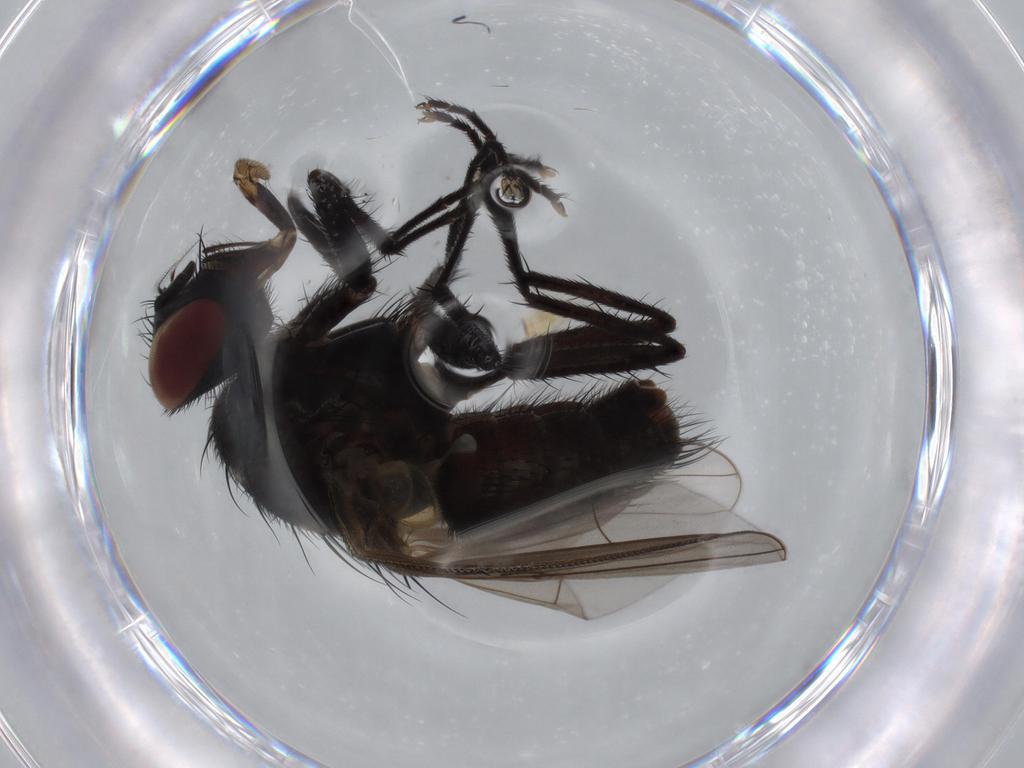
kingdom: Animalia
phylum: Arthropoda
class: Insecta
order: Diptera
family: Muscidae
